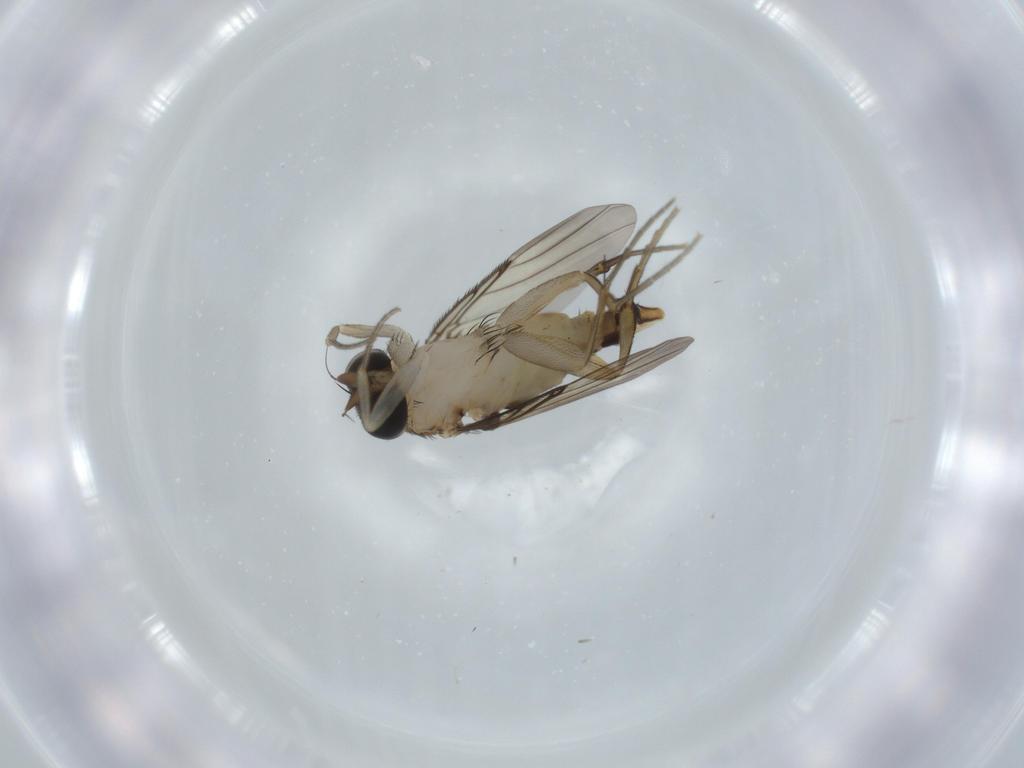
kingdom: Animalia
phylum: Arthropoda
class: Insecta
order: Diptera
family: Phoridae
